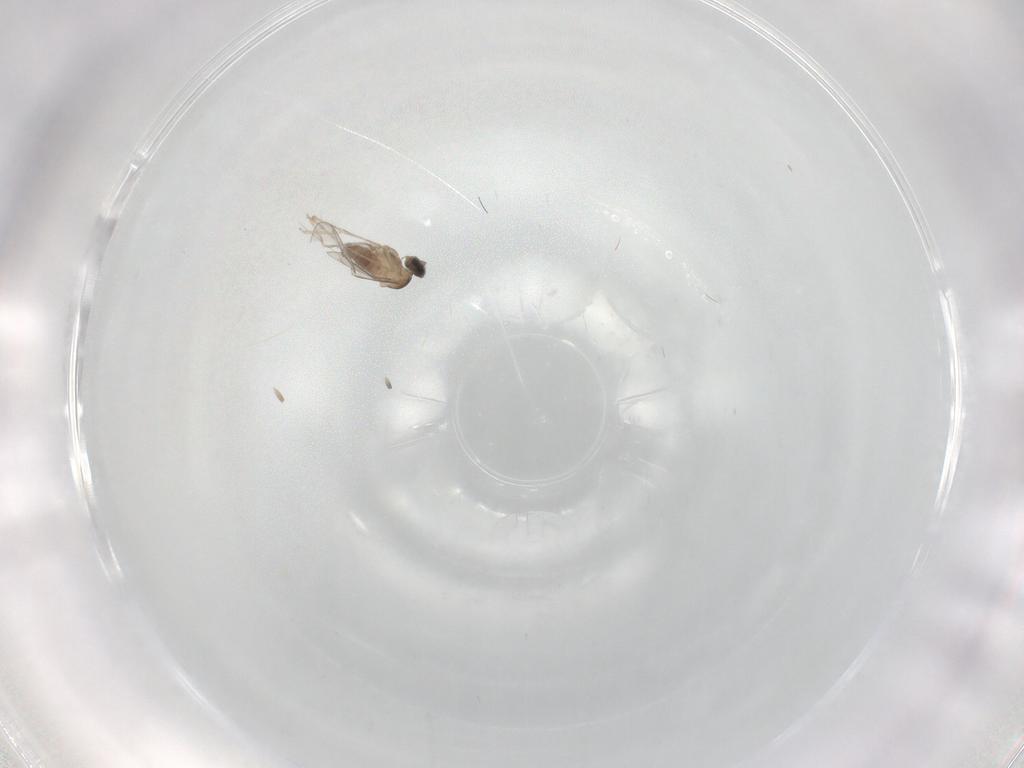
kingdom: Animalia
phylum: Arthropoda
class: Insecta
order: Diptera
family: Cecidomyiidae
